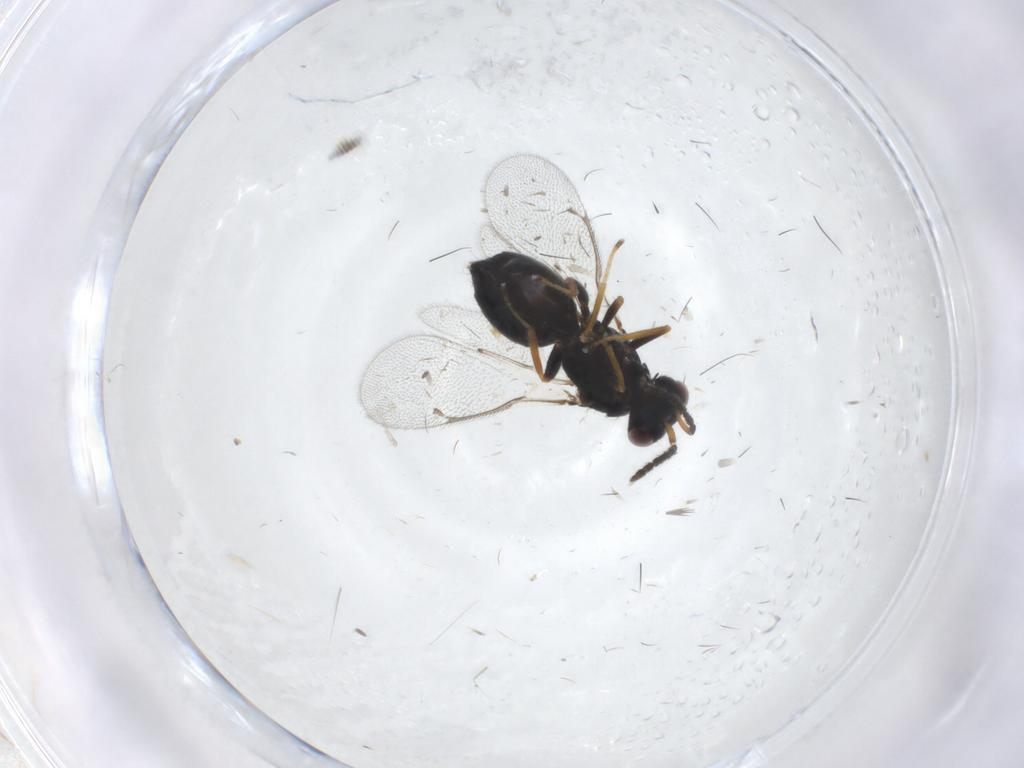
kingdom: Animalia
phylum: Arthropoda
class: Insecta
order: Hymenoptera
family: Eulophidae
